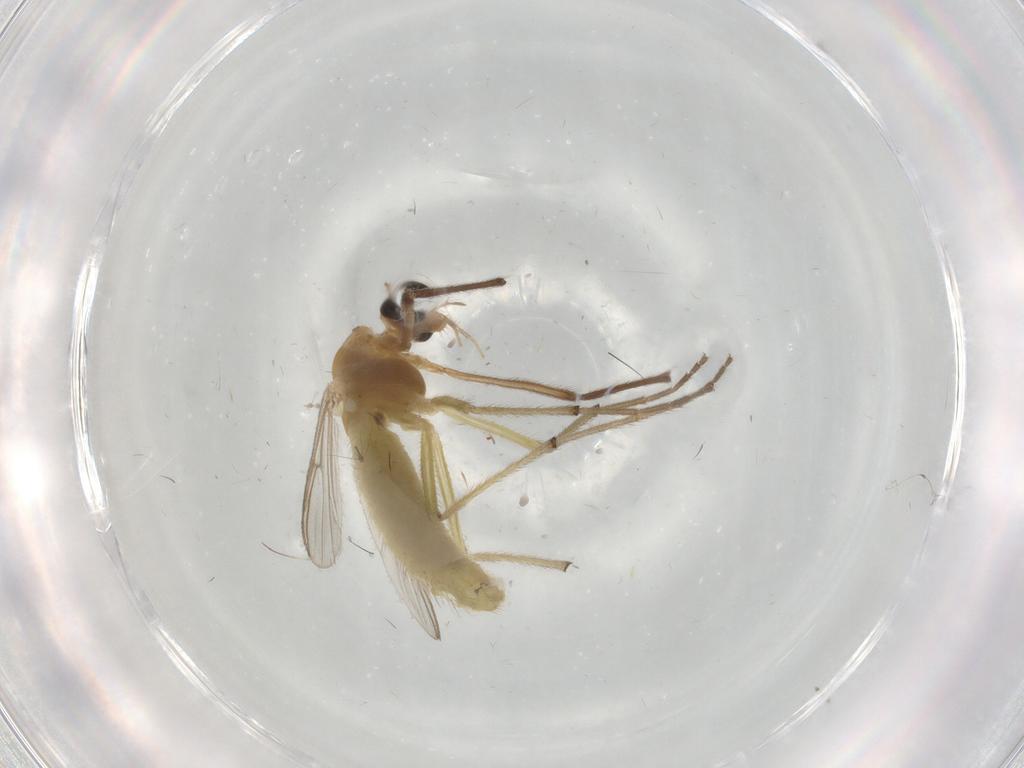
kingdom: Animalia
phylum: Arthropoda
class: Insecta
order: Diptera
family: Chironomidae
